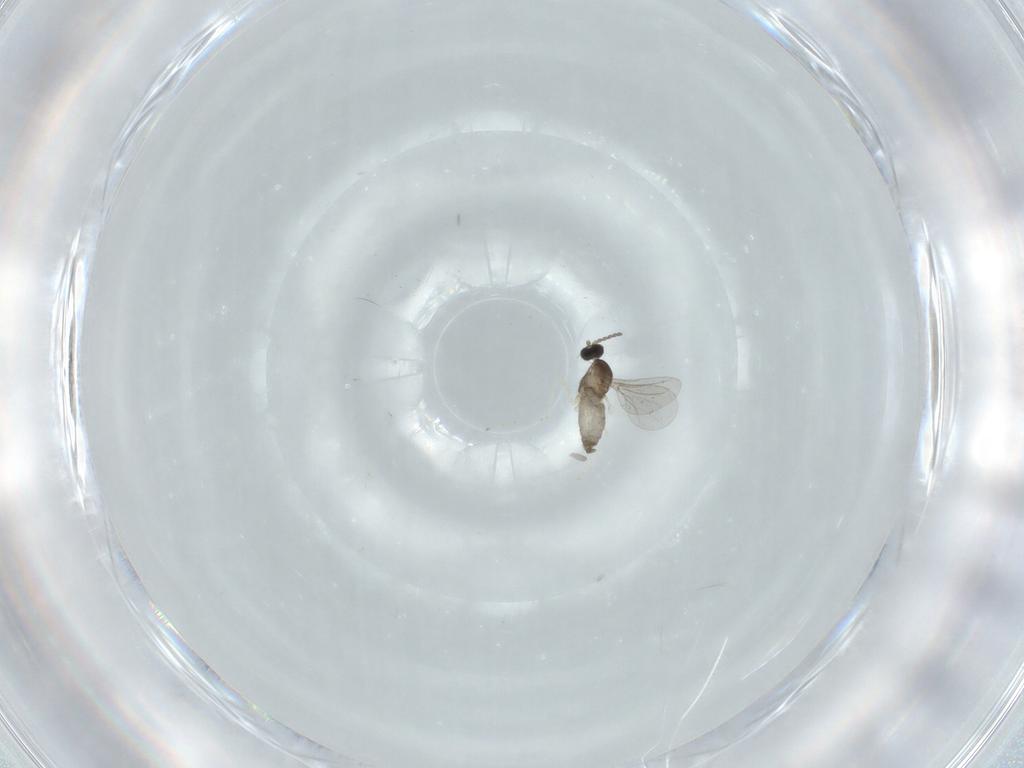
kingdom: Animalia
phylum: Arthropoda
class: Insecta
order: Diptera
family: Cecidomyiidae
